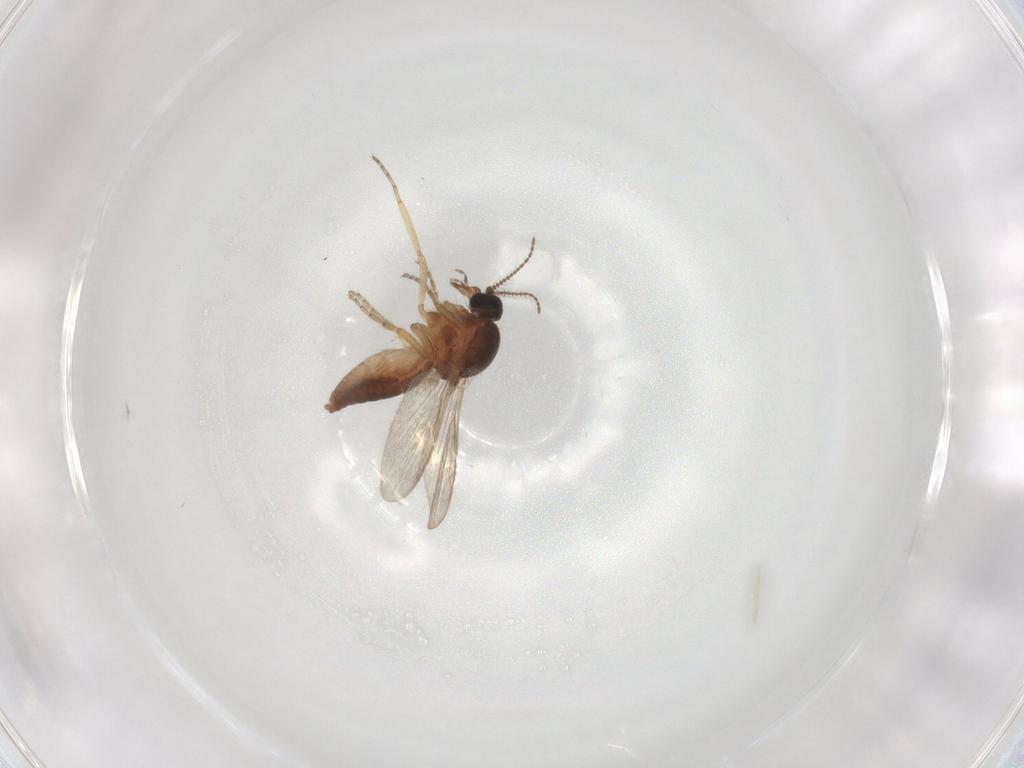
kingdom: Animalia
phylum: Arthropoda
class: Insecta
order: Diptera
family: Ceratopogonidae
